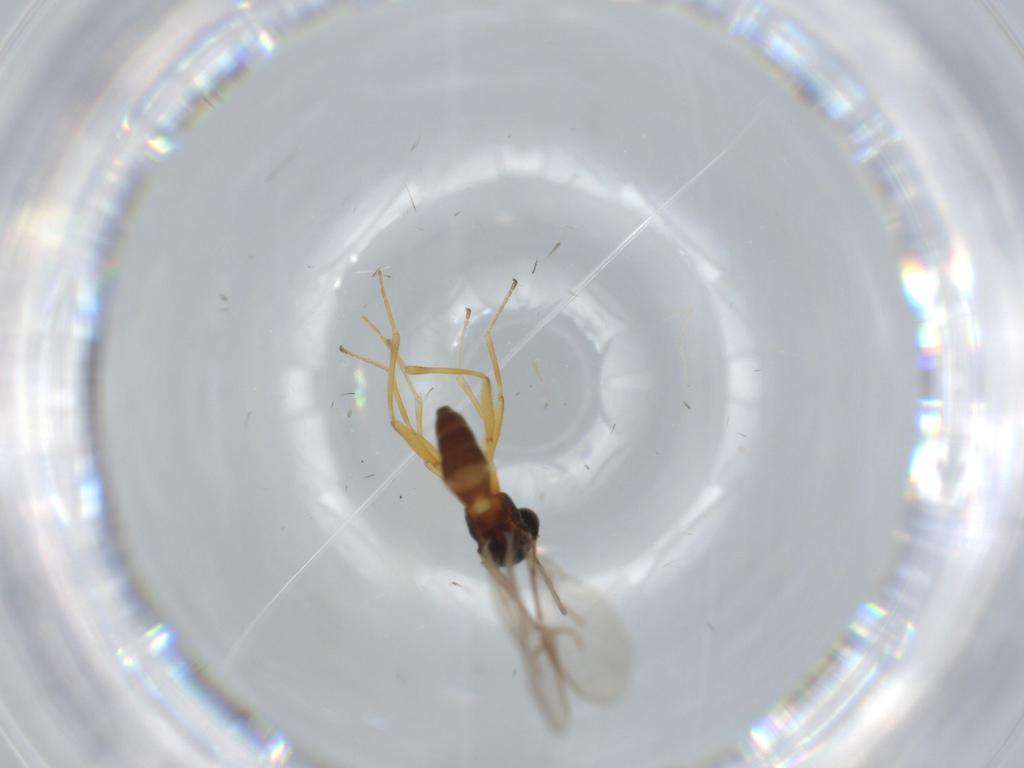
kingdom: Animalia
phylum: Arthropoda
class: Insecta
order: Hymenoptera
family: Braconidae
